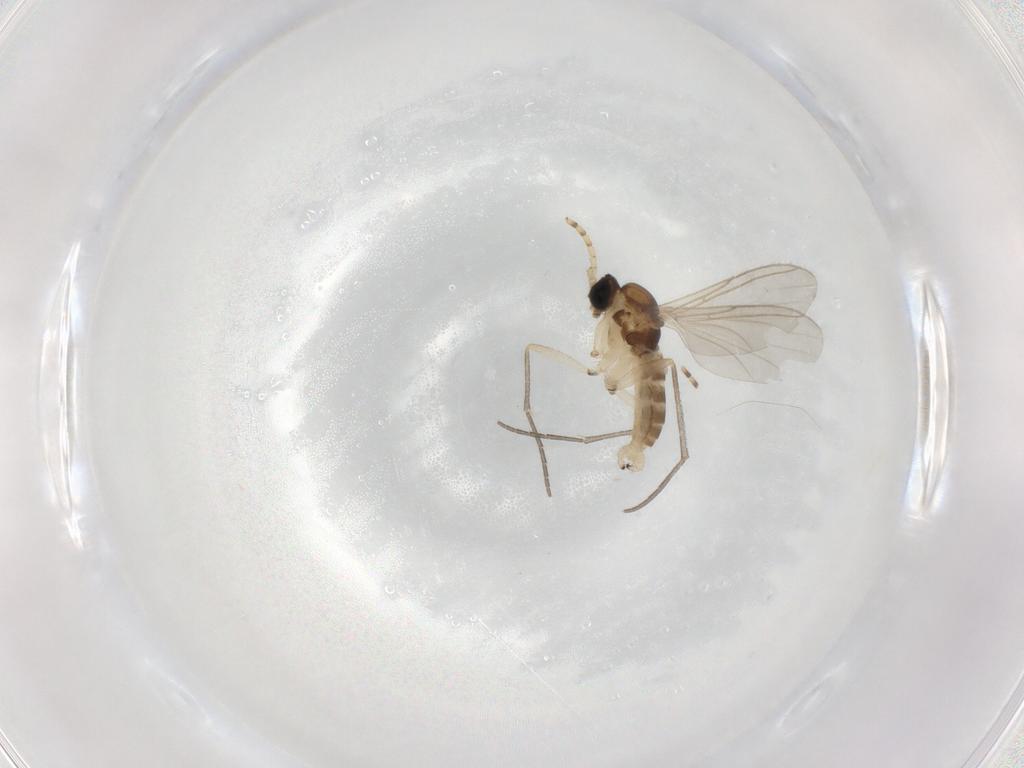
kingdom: Animalia
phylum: Arthropoda
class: Insecta
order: Diptera
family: Sciaridae
